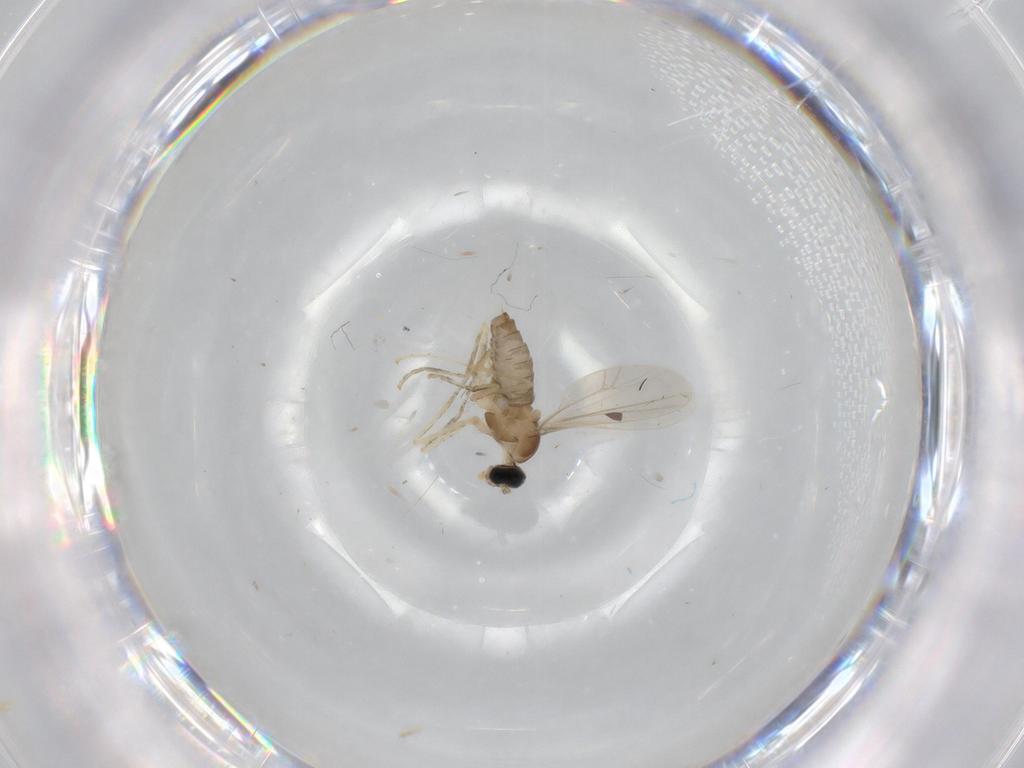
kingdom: Animalia
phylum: Arthropoda
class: Insecta
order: Diptera
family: Cecidomyiidae
